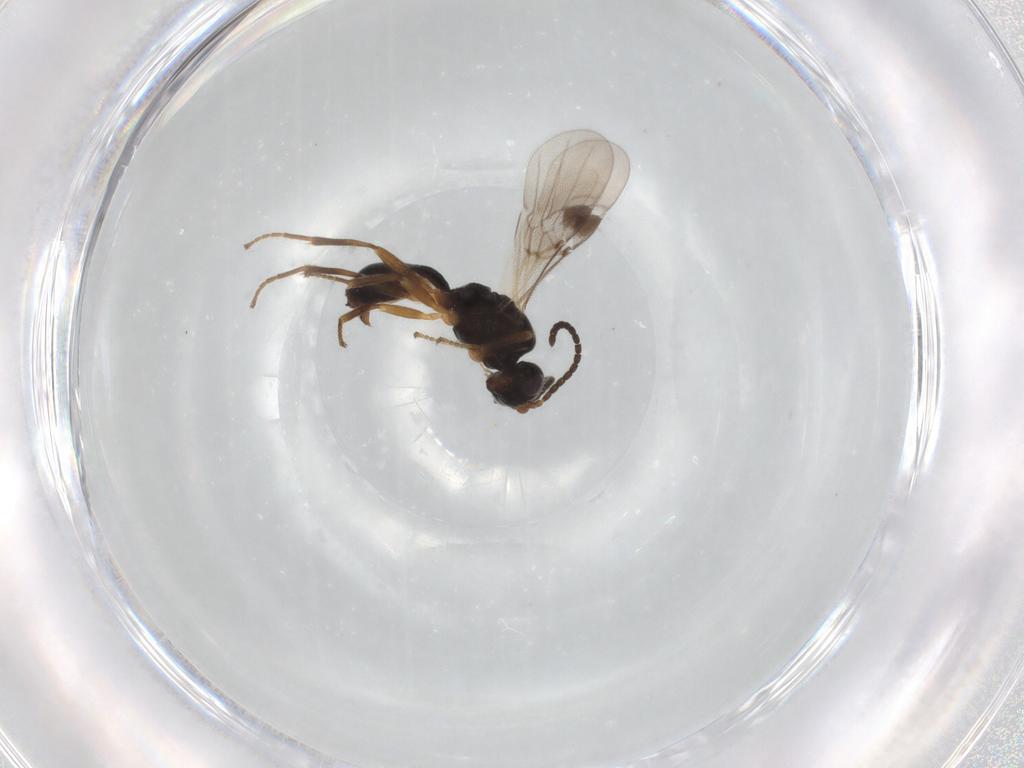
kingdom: Animalia
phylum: Arthropoda
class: Insecta
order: Hymenoptera
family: Braconidae
